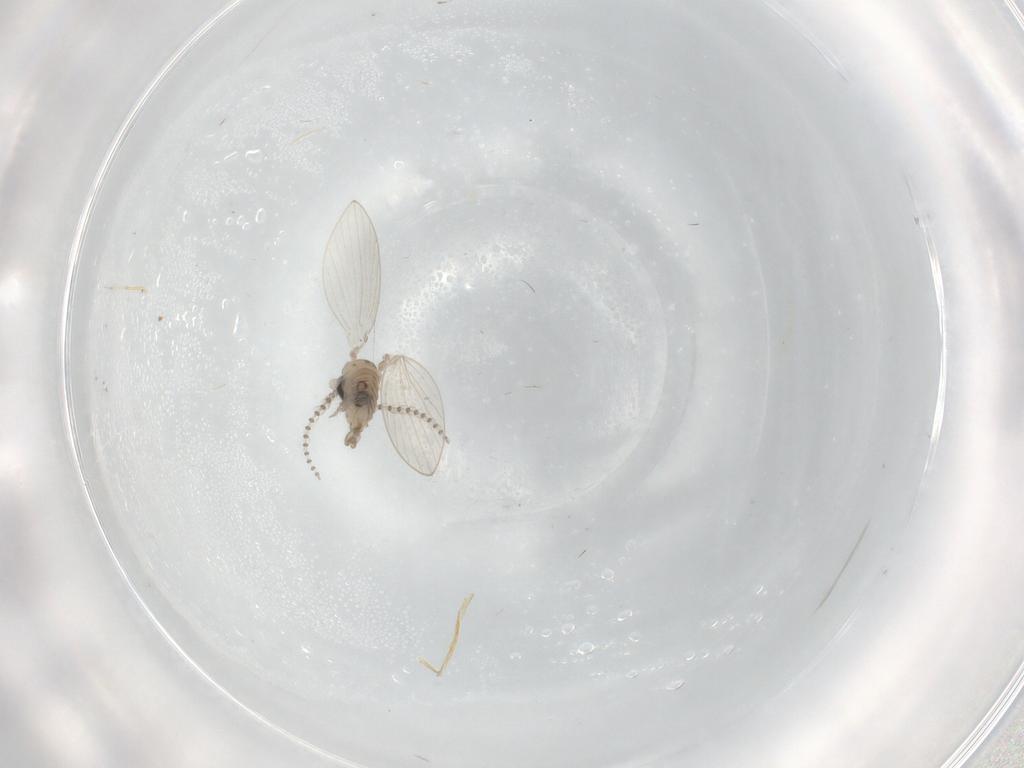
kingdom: Animalia
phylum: Arthropoda
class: Insecta
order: Diptera
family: Psychodidae
